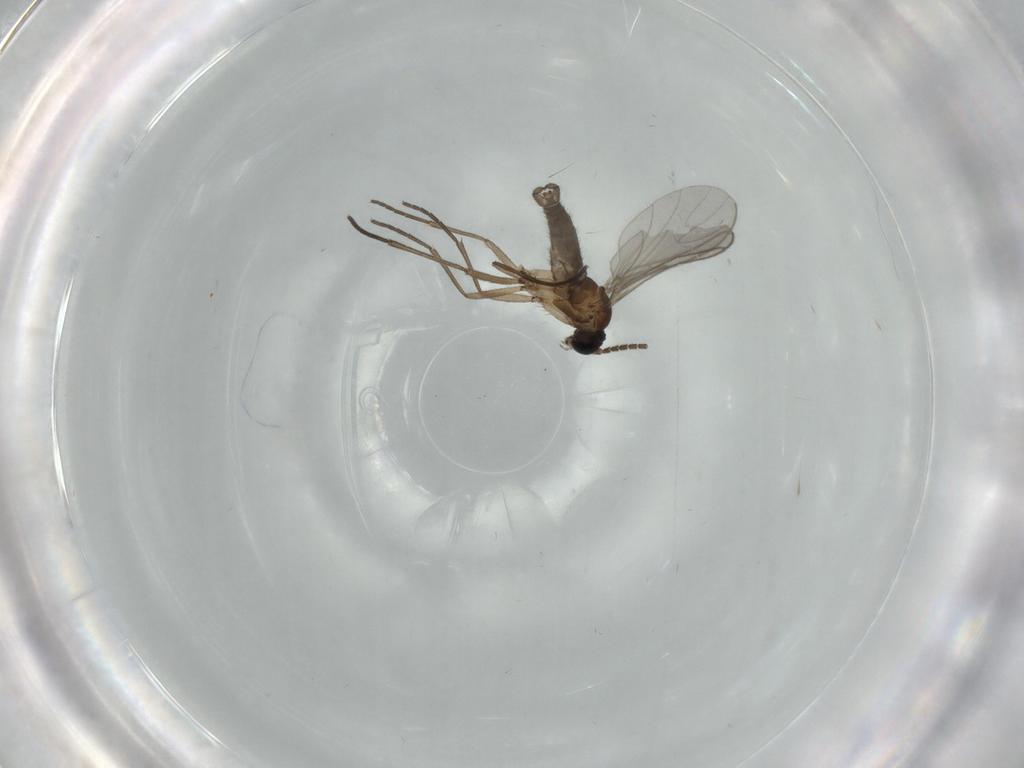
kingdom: Animalia
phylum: Arthropoda
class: Insecta
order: Diptera
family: Sciaridae
